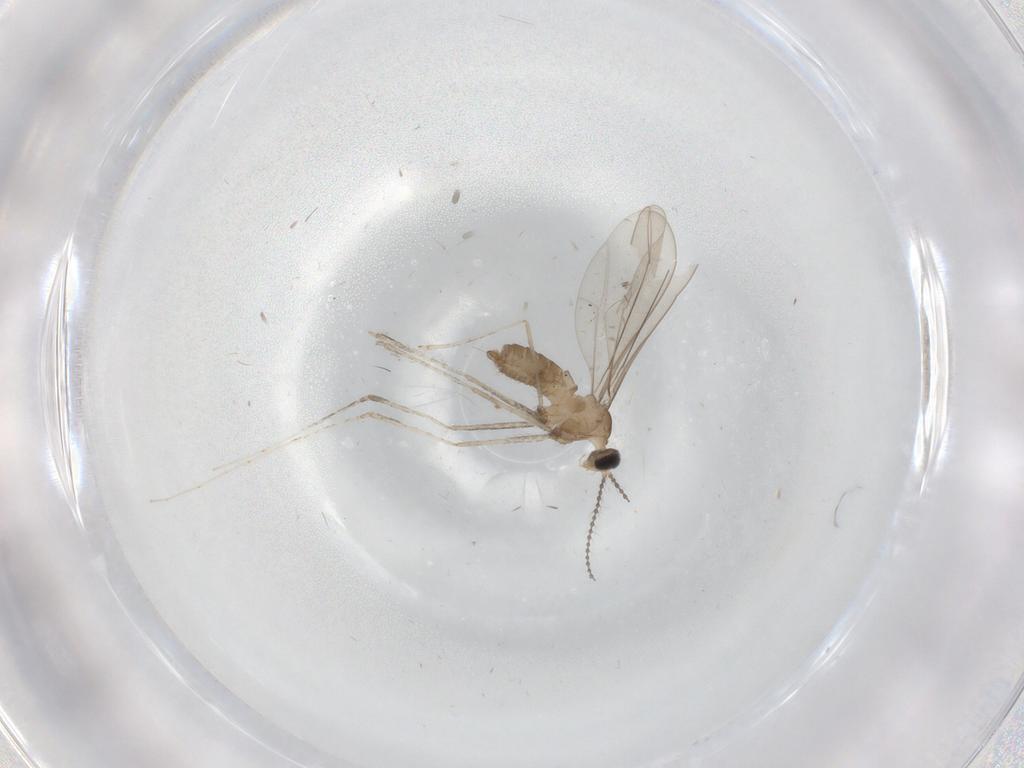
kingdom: Animalia
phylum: Arthropoda
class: Insecta
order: Diptera
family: Cecidomyiidae
